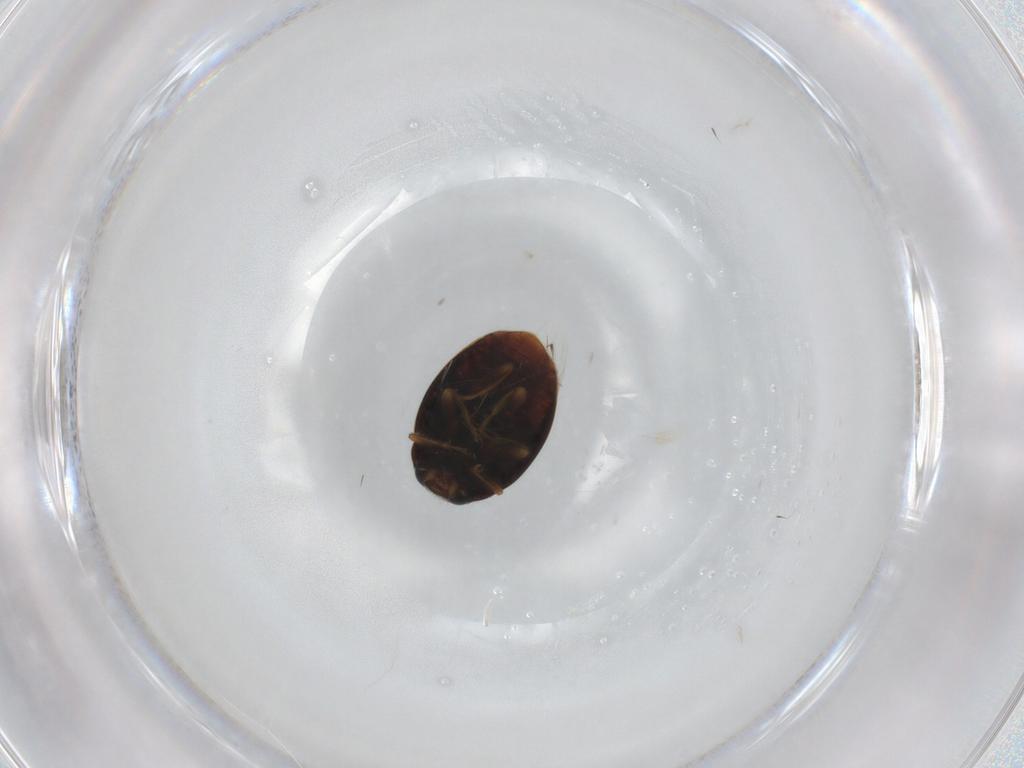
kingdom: Animalia
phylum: Arthropoda
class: Insecta
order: Coleoptera
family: Coccinellidae
